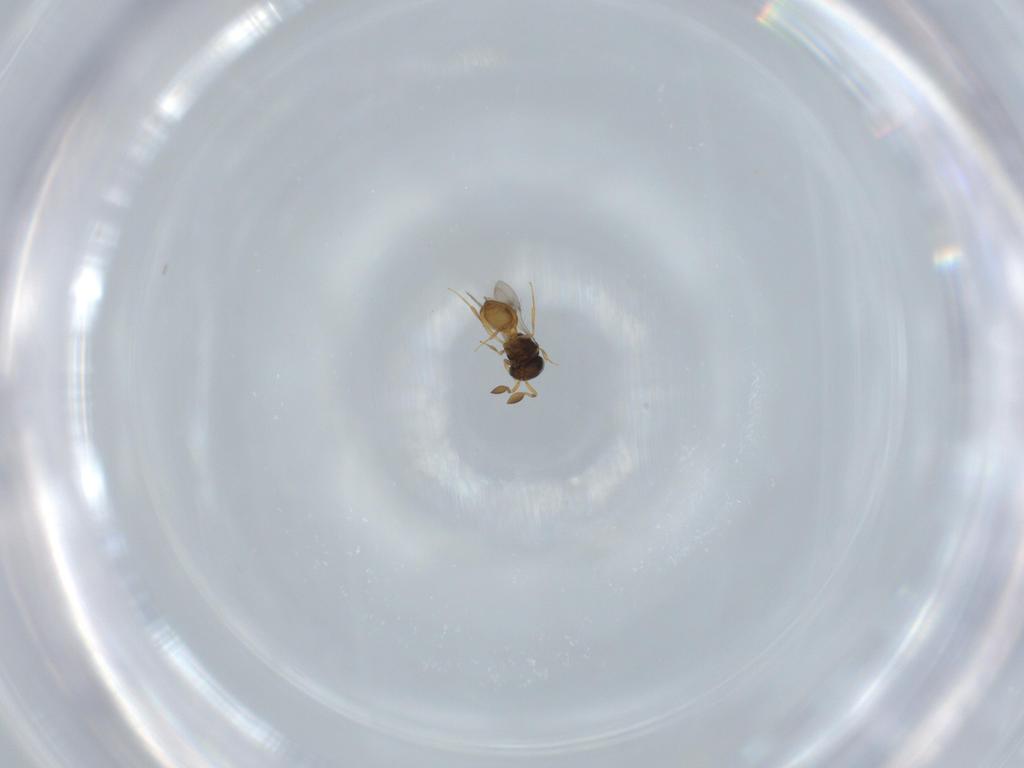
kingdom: Animalia
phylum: Arthropoda
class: Insecta
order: Hymenoptera
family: Scelionidae
